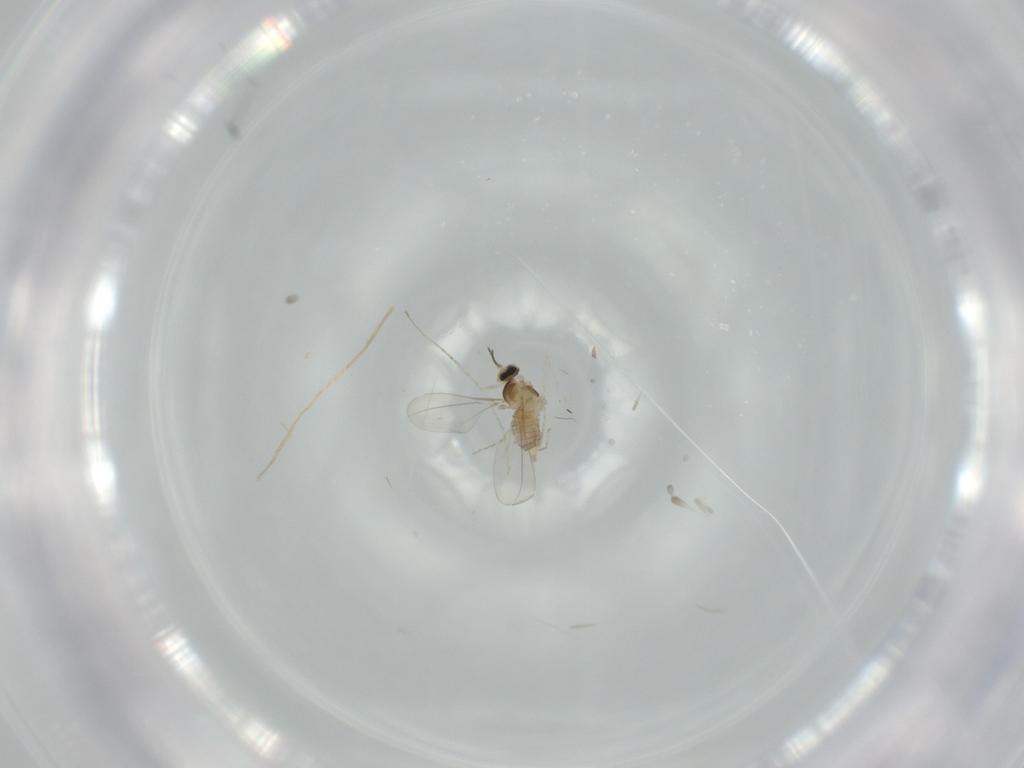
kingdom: Animalia
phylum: Arthropoda
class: Insecta
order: Diptera
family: Cecidomyiidae
